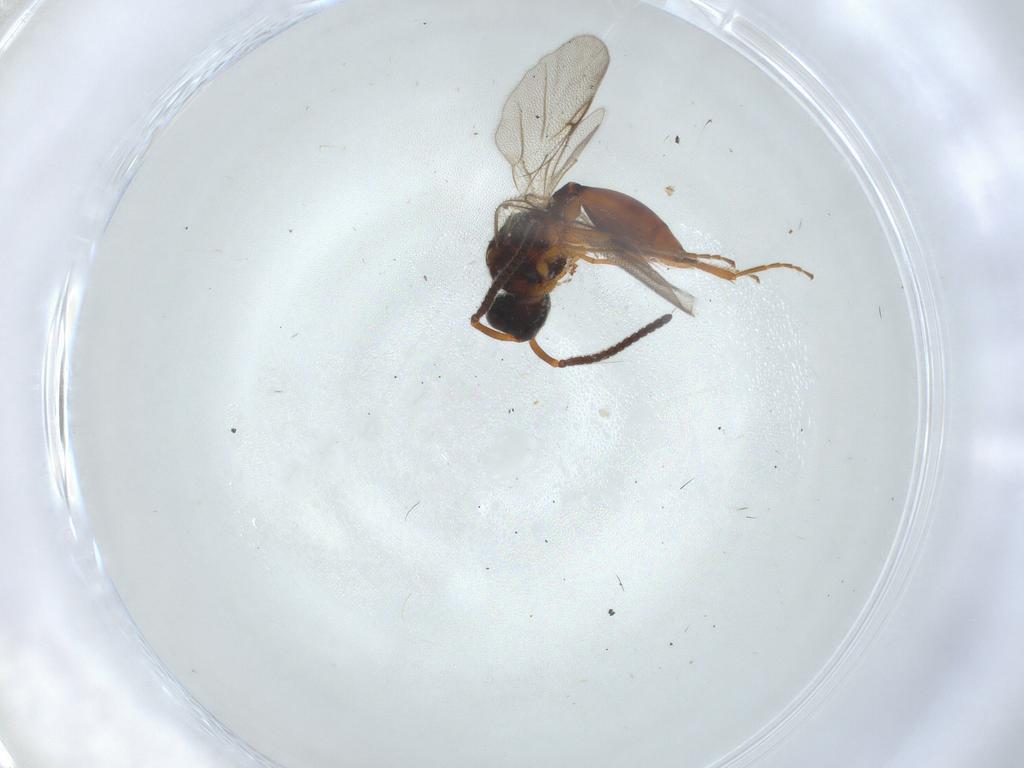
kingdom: Animalia
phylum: Arthropoda
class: Insecta
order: Hymenoptera
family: Diapriidae
